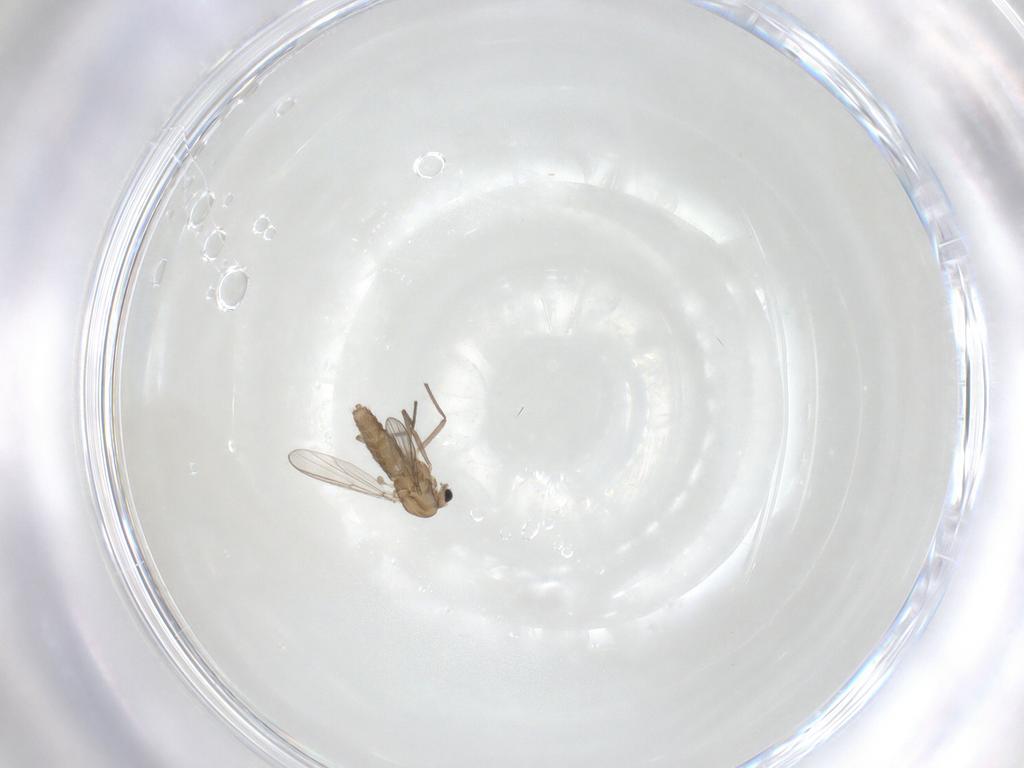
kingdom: Animalia
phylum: Arthropoda
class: Insecta
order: Diptera
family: Chironomidae
